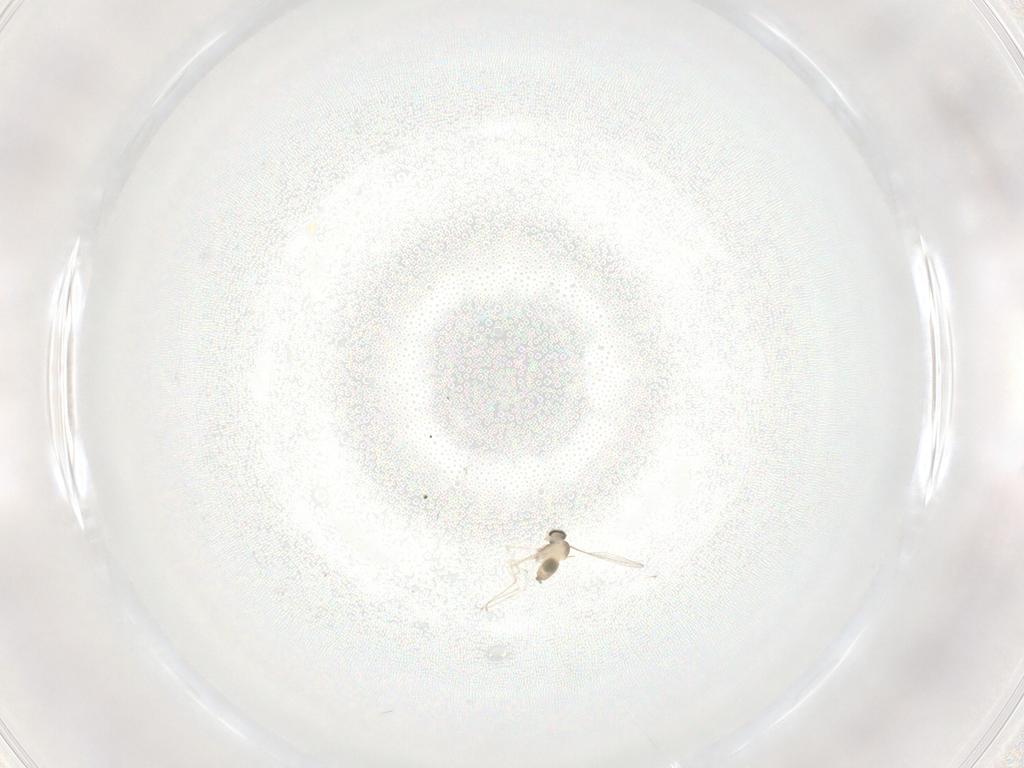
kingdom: Animalia
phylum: Arthropoda
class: Insecta
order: Diptera
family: Cecidomyiidae
